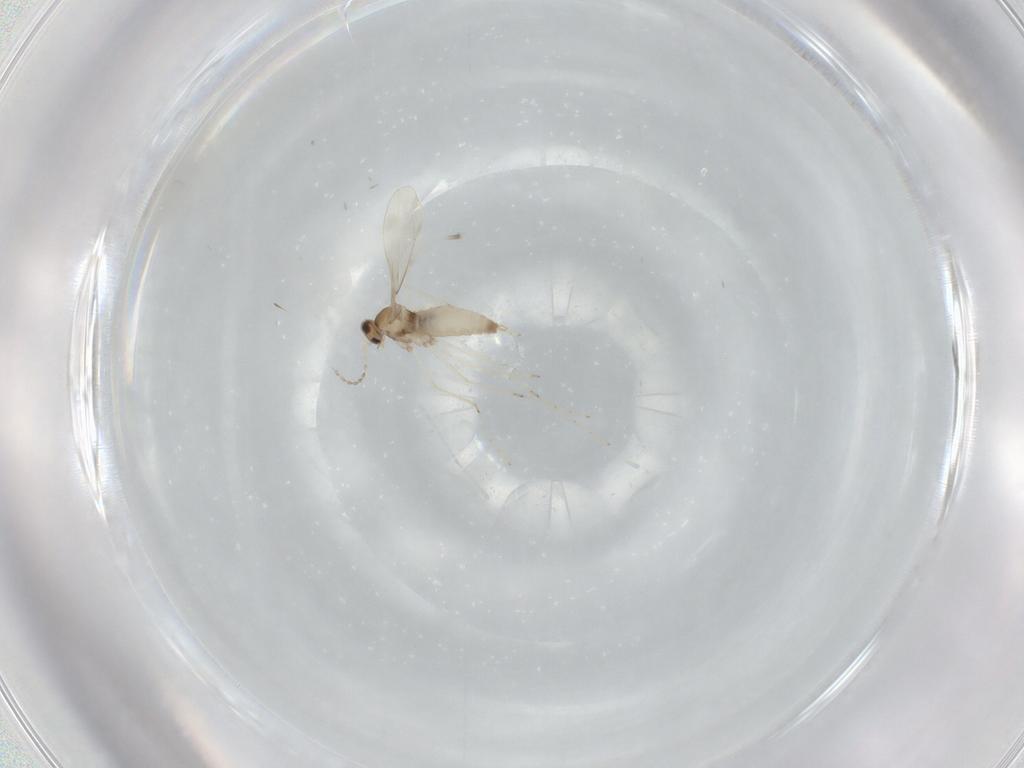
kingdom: Animalia
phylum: Arthropoda
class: Insecta
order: Diptera
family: Cecidomyiidae
